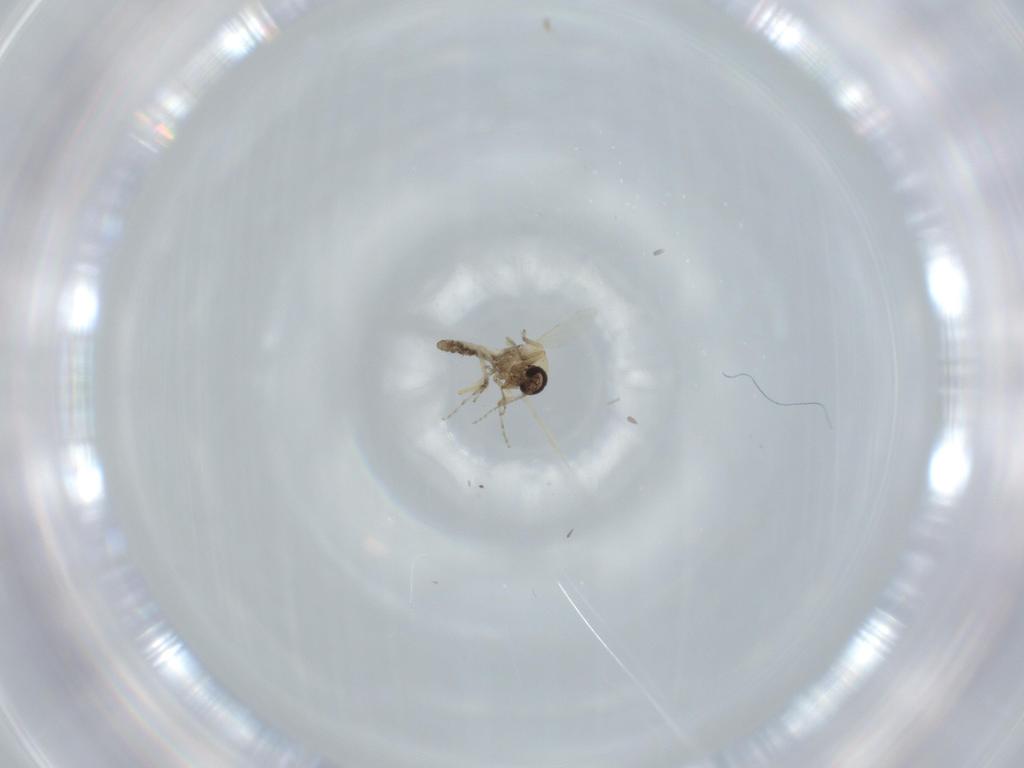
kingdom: Animalia
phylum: Arthropoda
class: Insecta
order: Diptera
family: Ceratopogonidae
